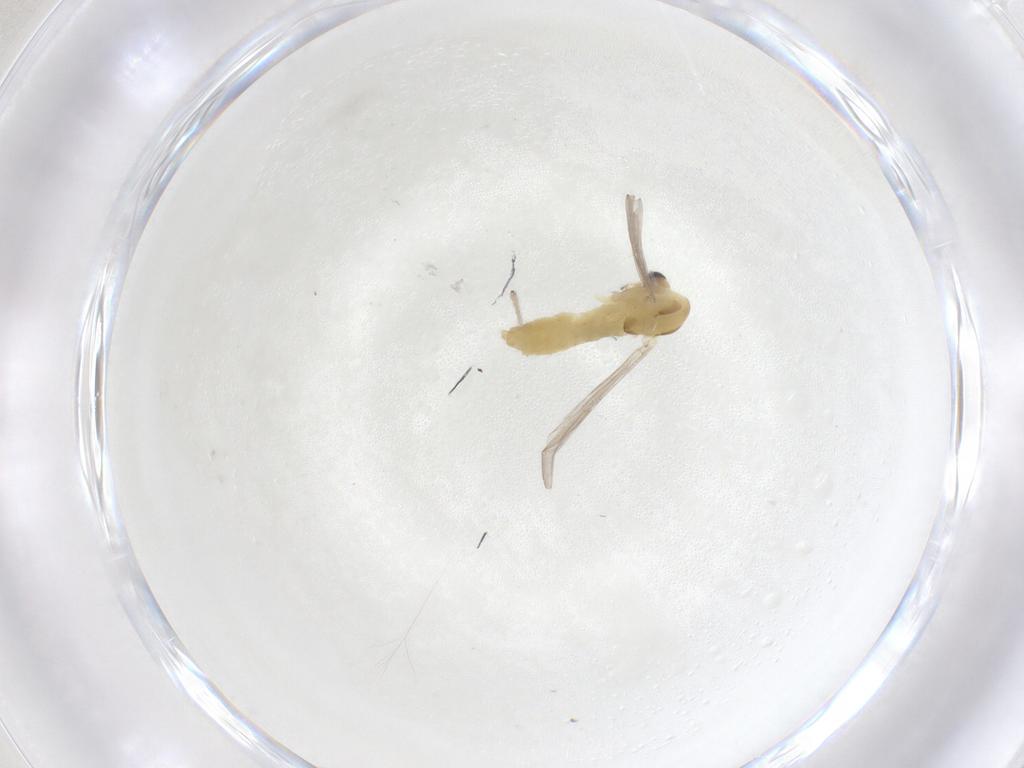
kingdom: Animalia
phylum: Arthropoda
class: Insecta
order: Diptera
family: Chironomidae
